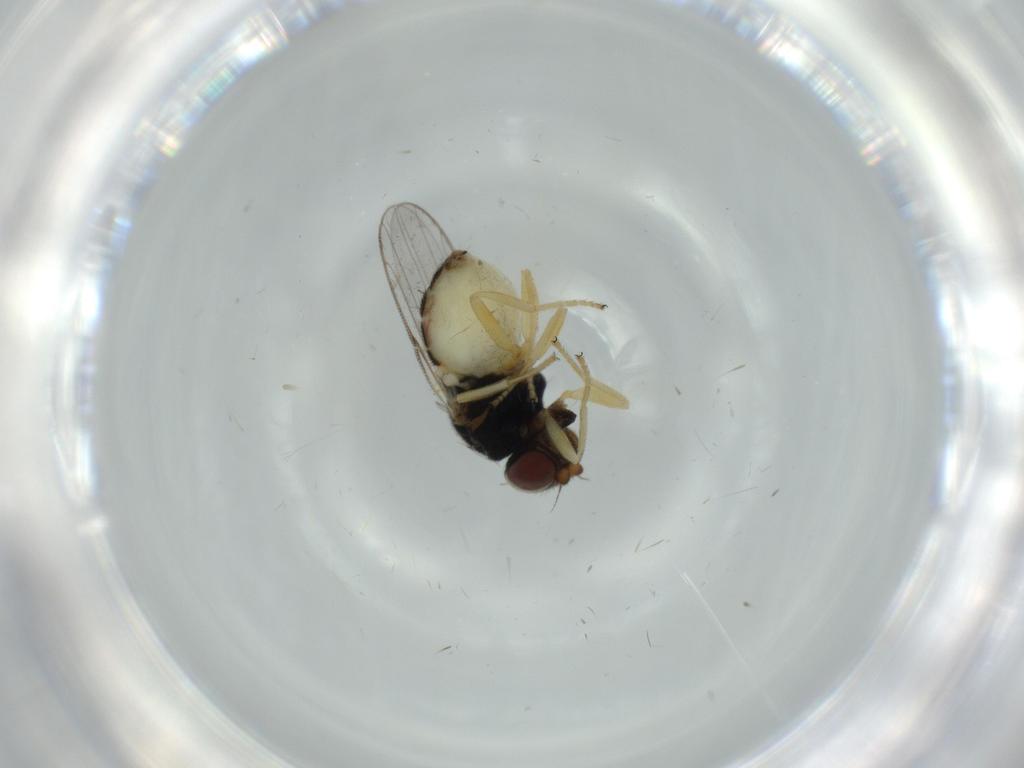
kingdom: Animalia
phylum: Arthropoda
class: Insecta
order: Diptera
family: Chloropidae
